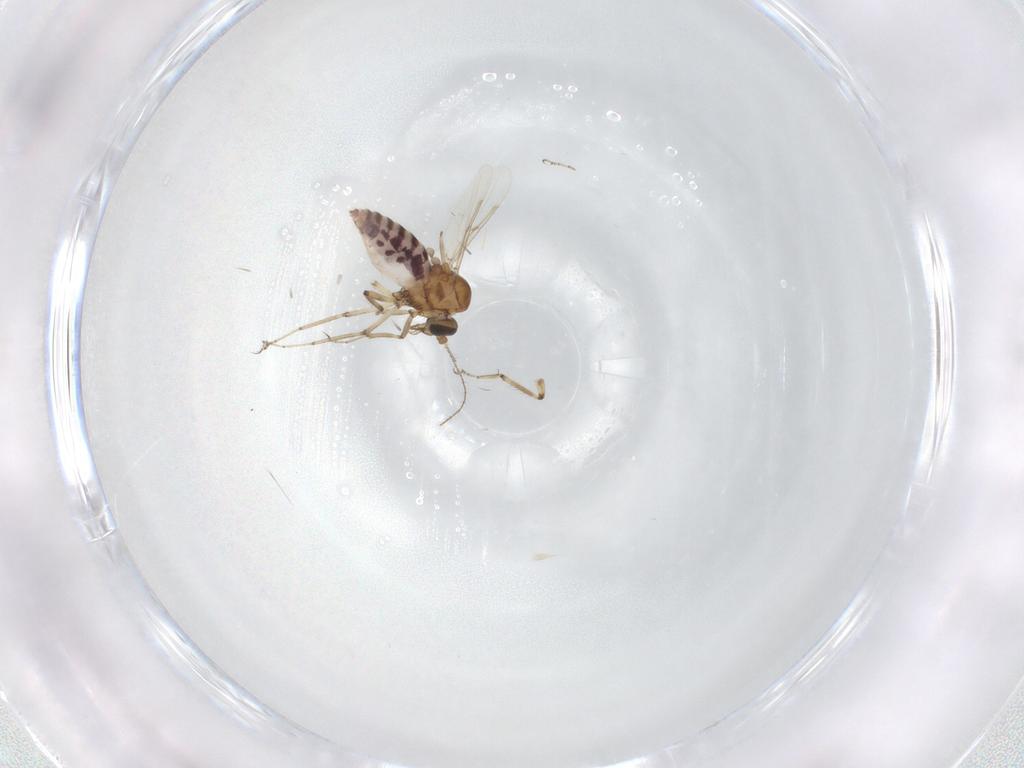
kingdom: Animalia
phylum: Arthropoda
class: Insecta
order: Diptera
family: Ceratopogonidae
